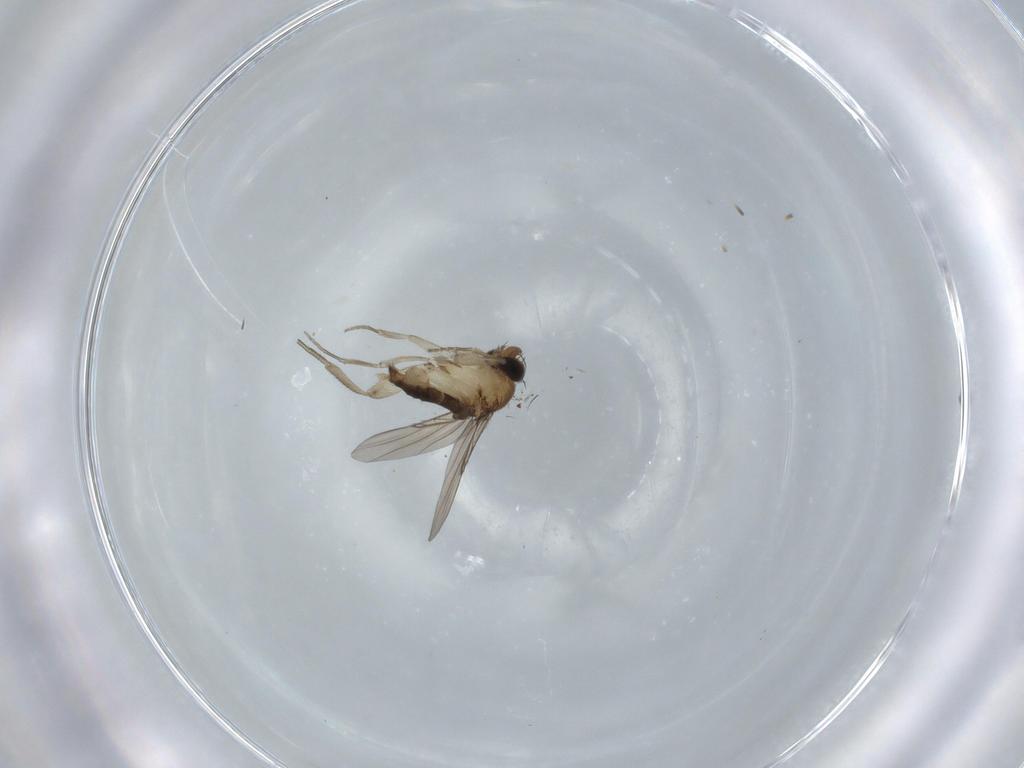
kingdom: Animalia
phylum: Arthropoda
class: Insecta
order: Diptera
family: Phoridae
